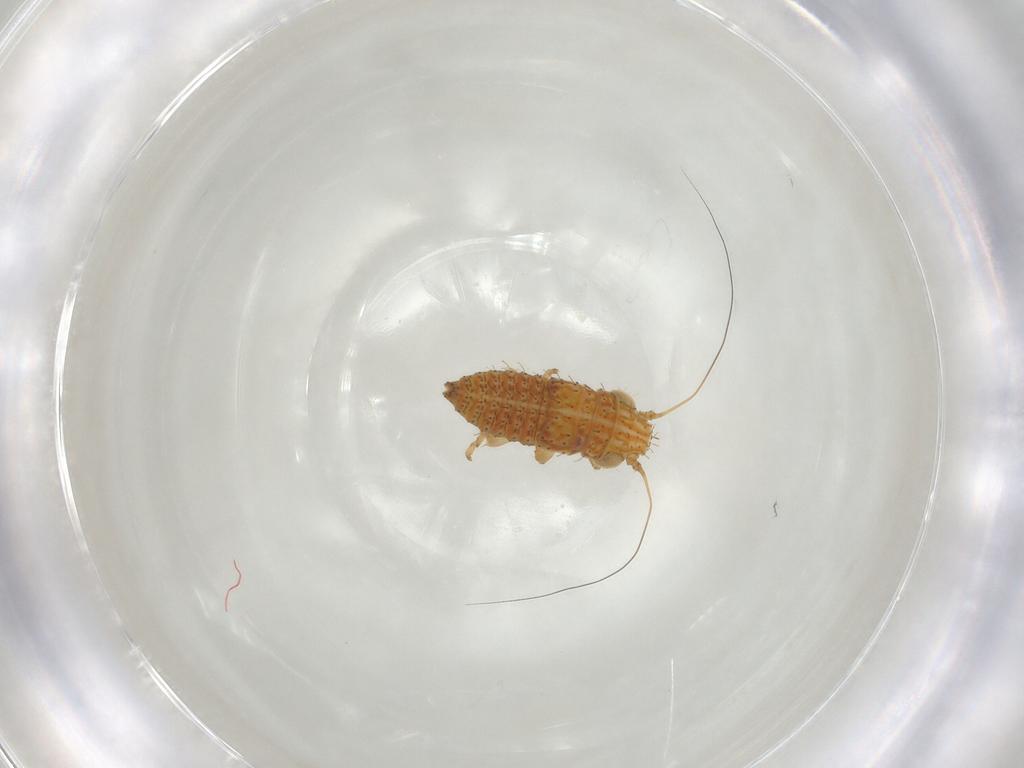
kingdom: Animalia
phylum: Arthropoda
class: Insecta
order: Hemiptera
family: Cicadellidae
